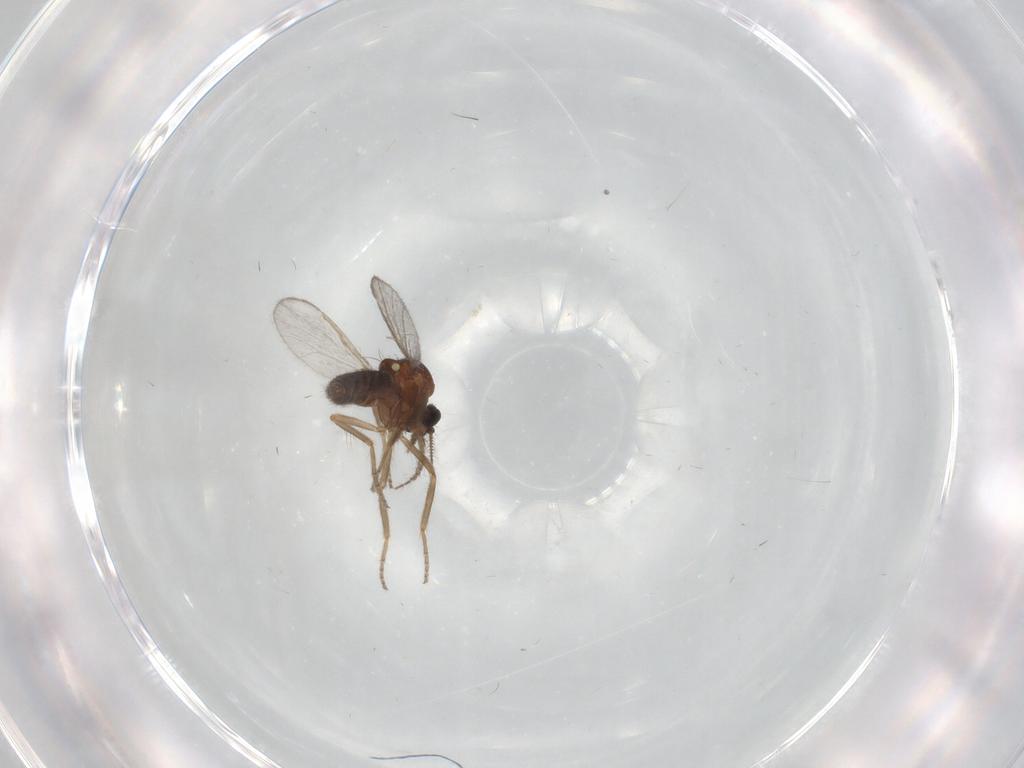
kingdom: Animalia
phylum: Arthropoda
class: Insecta
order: Diptera
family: Ceratopogonidae
